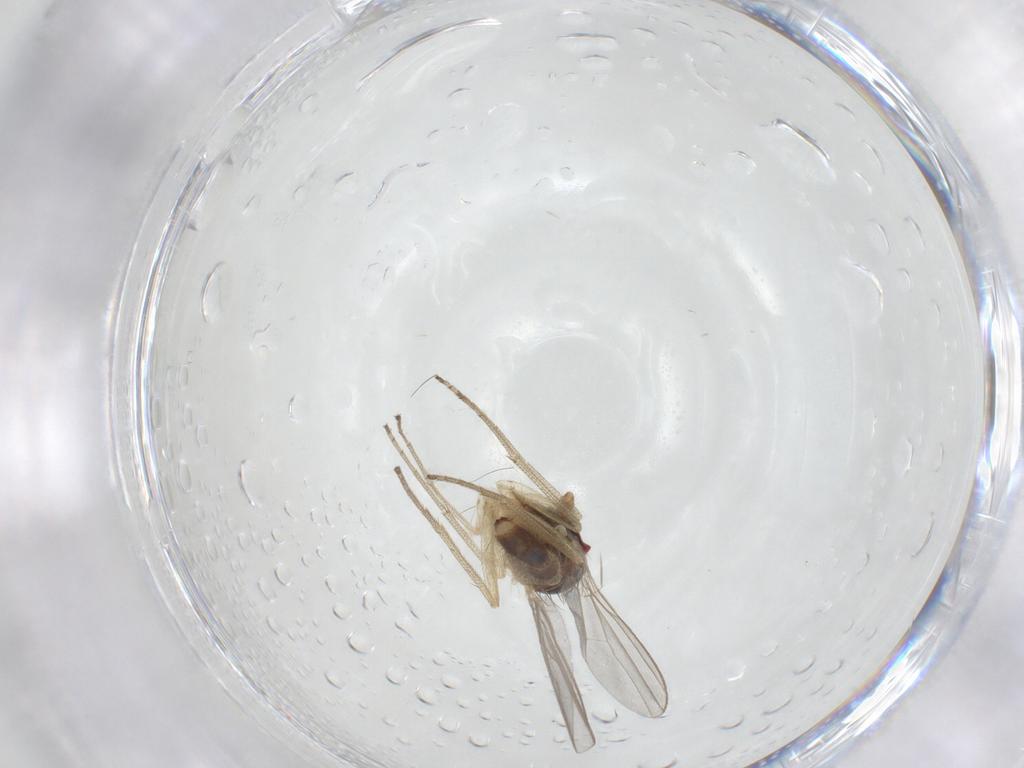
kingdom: Animalia
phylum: Arthropoda
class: Insecta
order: Diptera
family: Dolichopodidae
